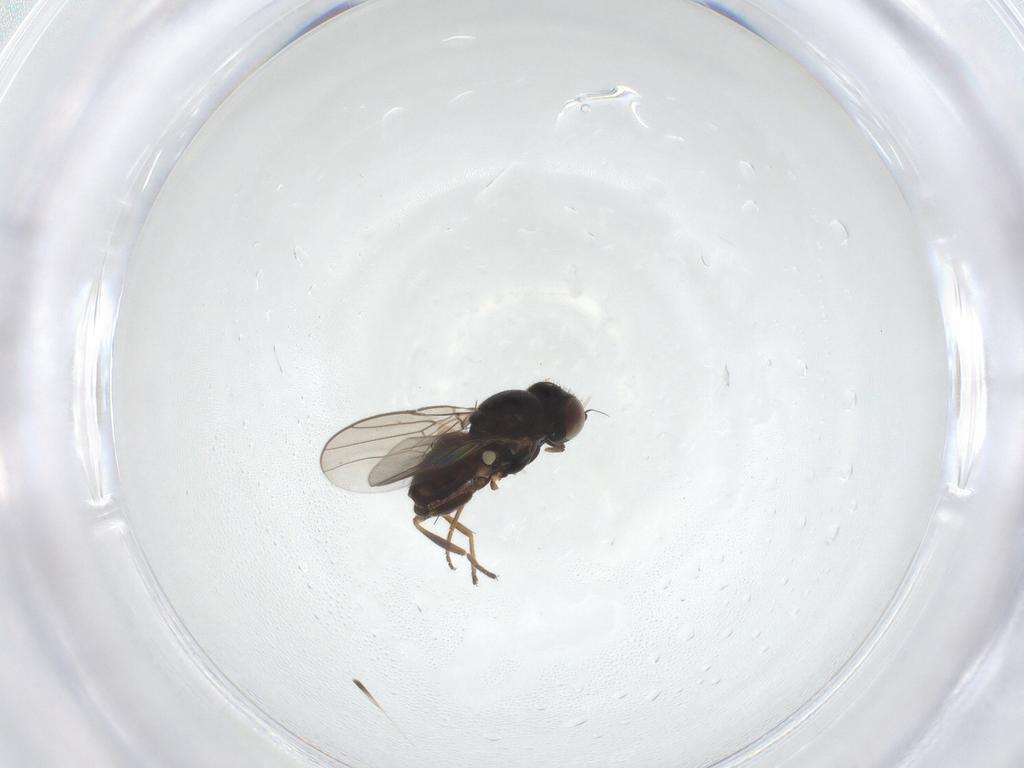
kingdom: Animalia
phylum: Arthropoda
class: Insecta
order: Diptera
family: Chloropidae
